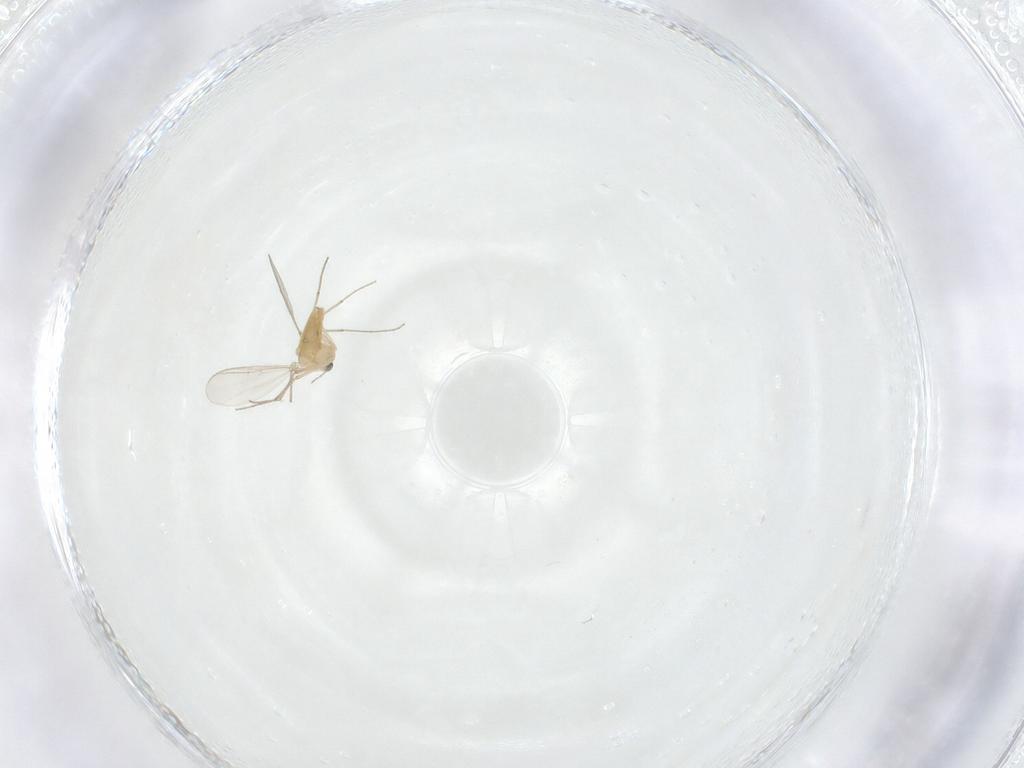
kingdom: Animalia
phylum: Arthropoda
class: Insecta
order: Diptera
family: Chironomidae
